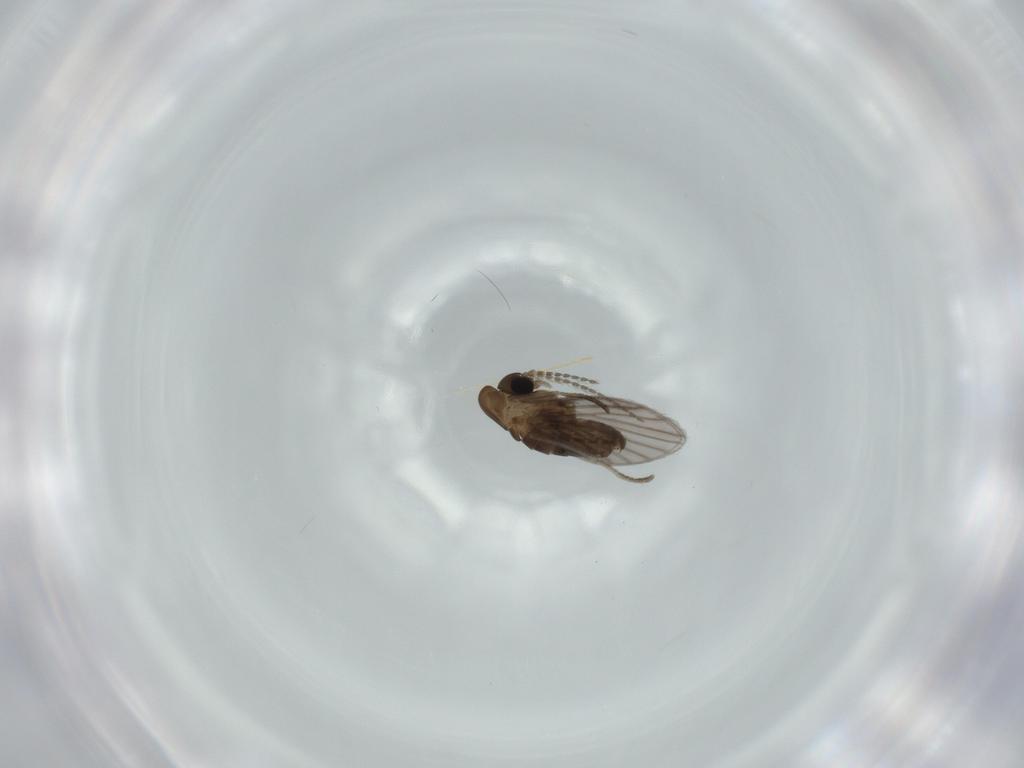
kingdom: Animalia
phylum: Arthropoda
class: Insecta
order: Diptera
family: Psychodidae
